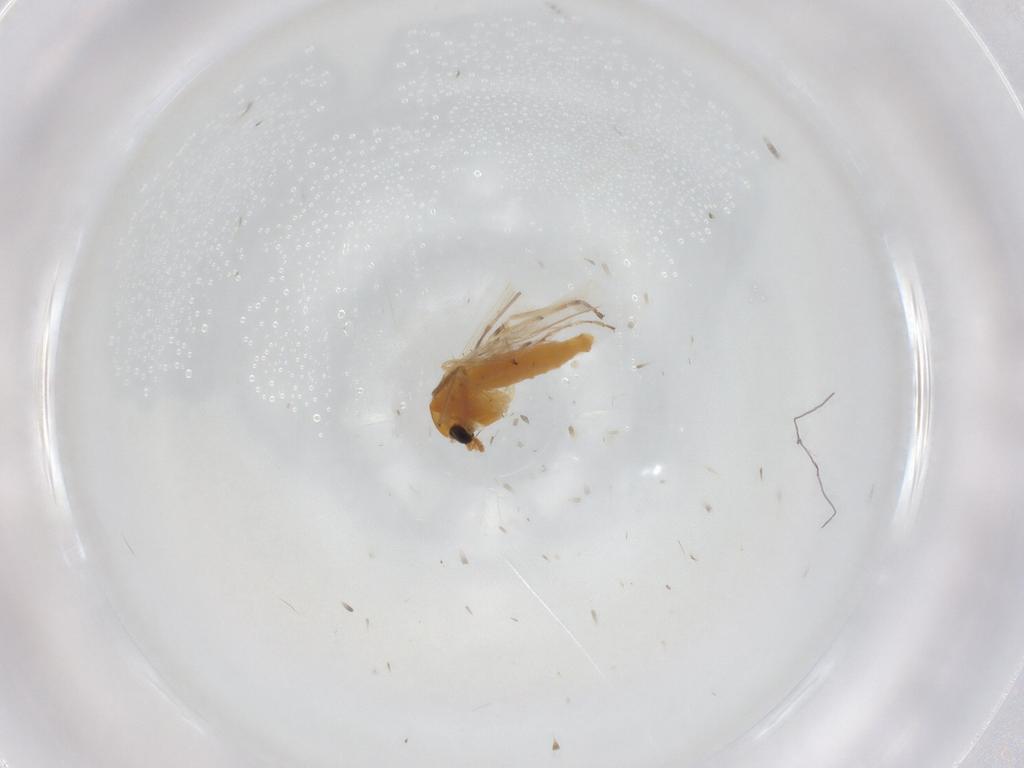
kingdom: Animalia
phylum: Arthropoda
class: Insecta
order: Diptera
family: Chironomidae
